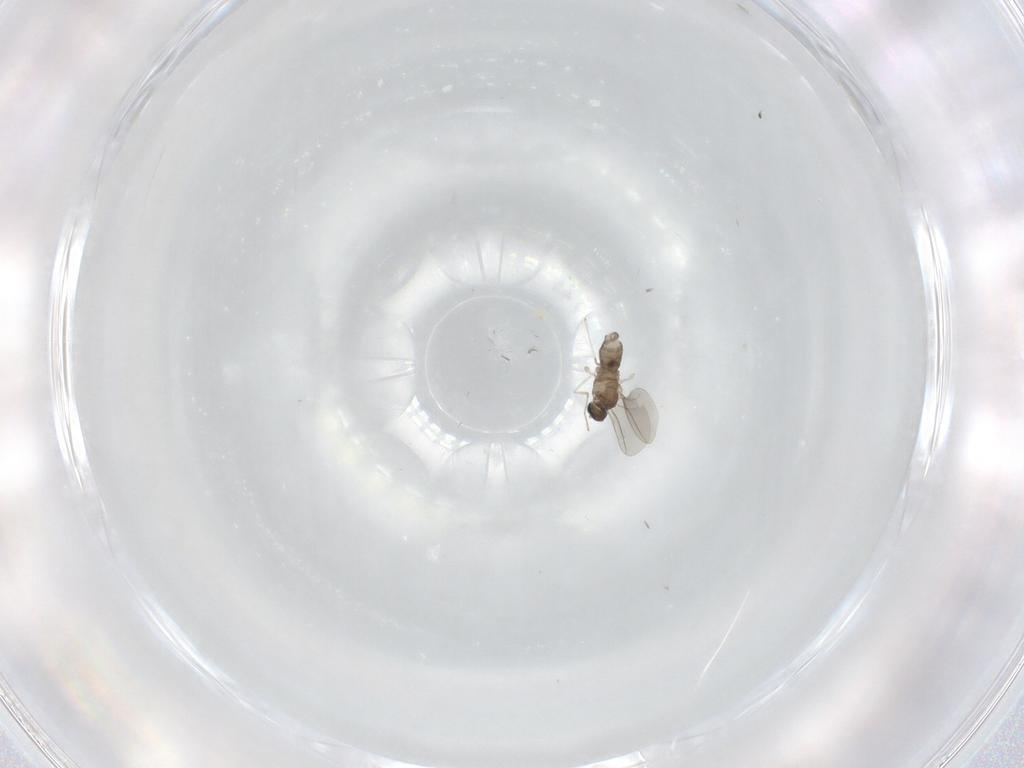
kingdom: Animalia
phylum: Arthropoda
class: Insecta
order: Diptera
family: Cecidomyiidae
